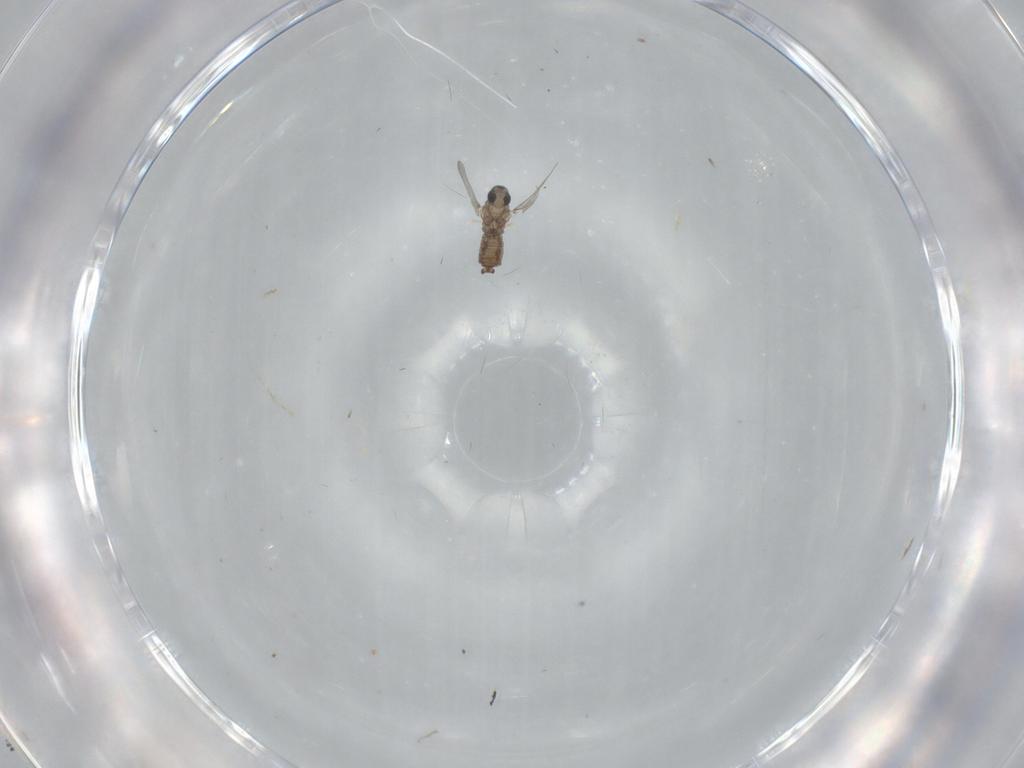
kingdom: Animalia
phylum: Arthropoda
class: Insecta
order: Diptera
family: Cecidomyiidae
